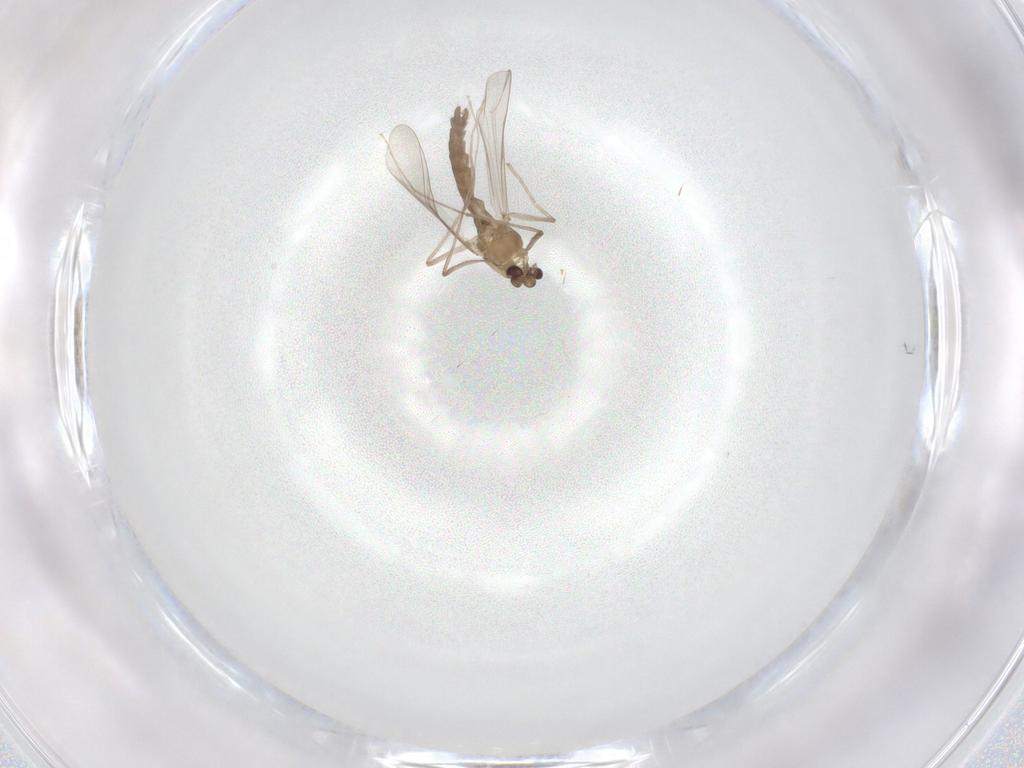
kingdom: Animalia
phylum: Arthropoda
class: Insecta
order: Diptera
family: Chironomidae
